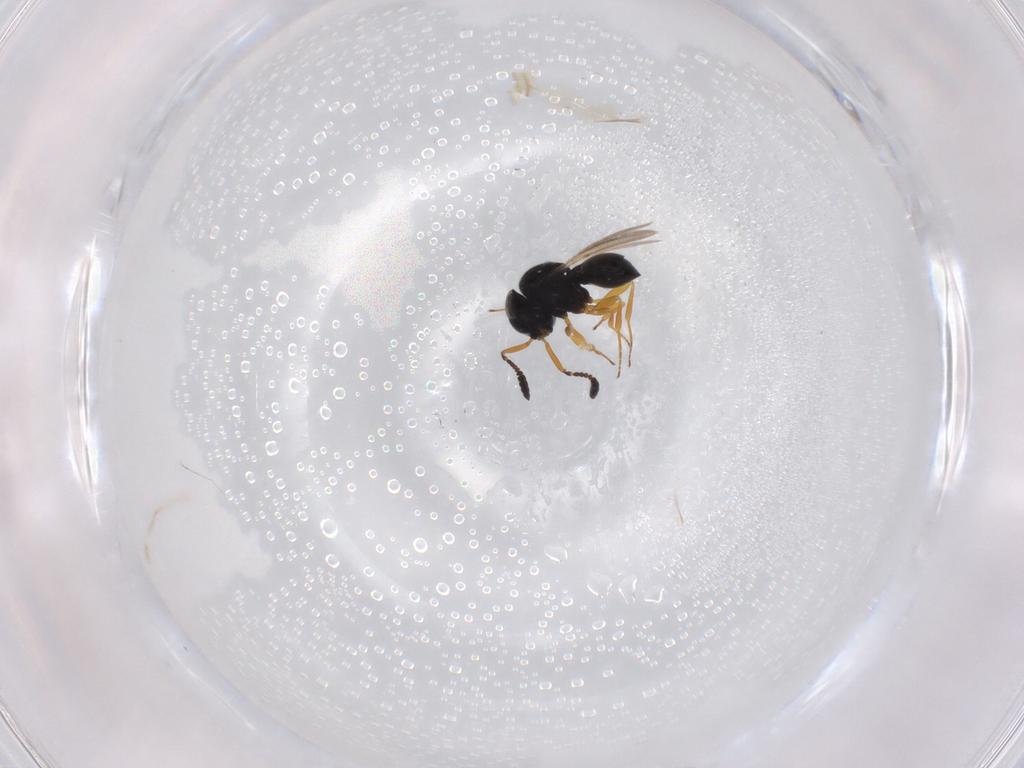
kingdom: Animalia
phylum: Arthropoda
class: Insecta
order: Hymenoptera
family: Scelionidae
